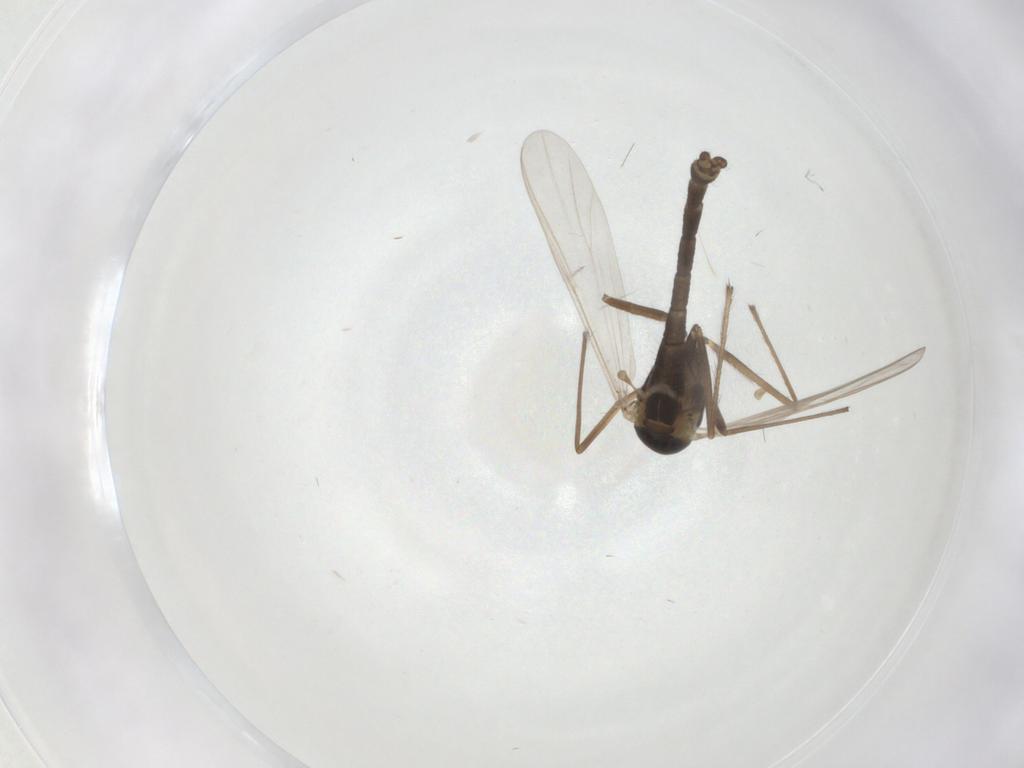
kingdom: Animalia
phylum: Arthropoda
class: Insecta
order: Diptera
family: Chironomidae
